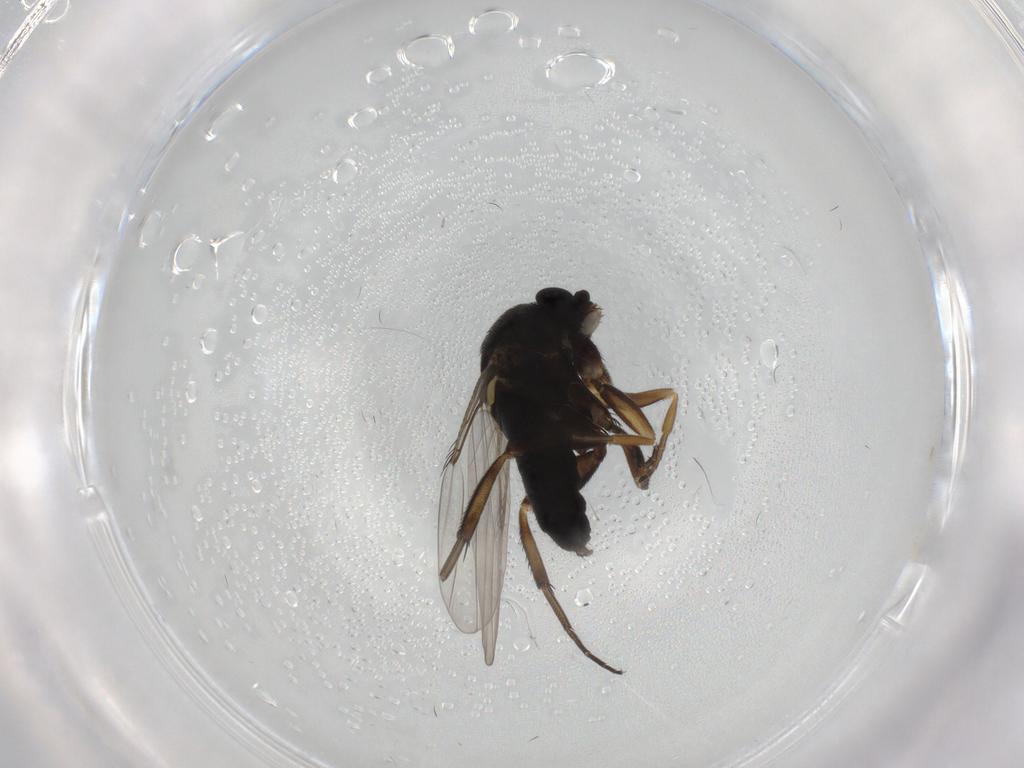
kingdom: Animalia
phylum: Arthropoda
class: Insecta
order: Diptera
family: Phoridae
